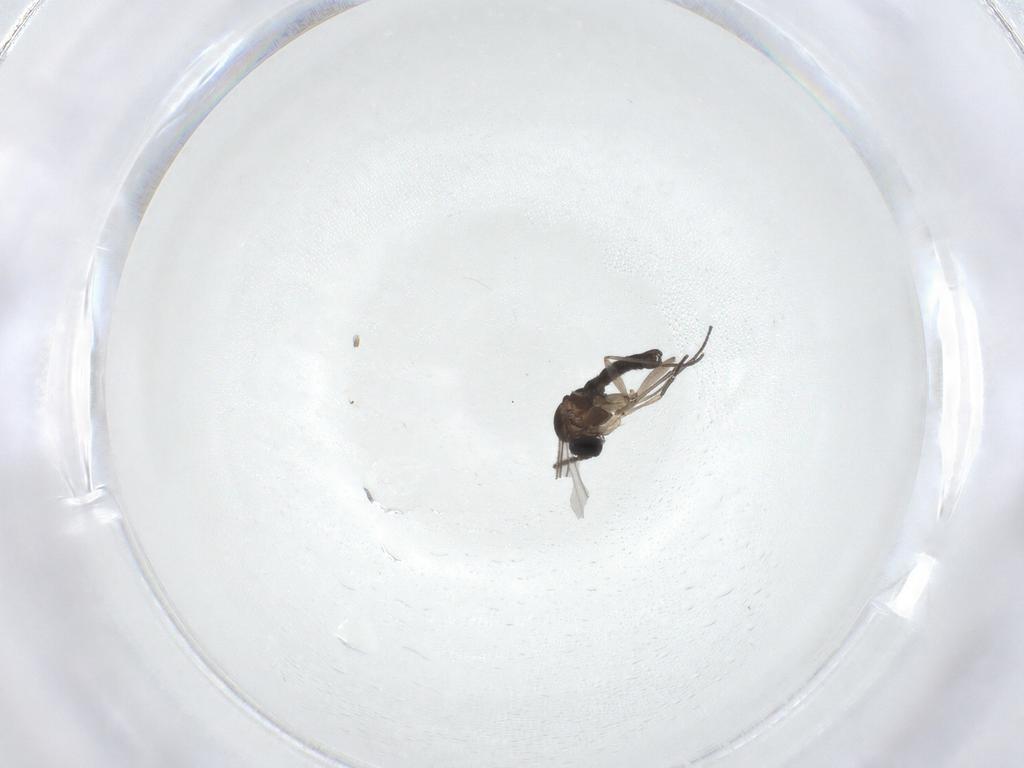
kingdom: Animalia
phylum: Arthropoda
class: Insecta
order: Diptera
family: Sciaridae
